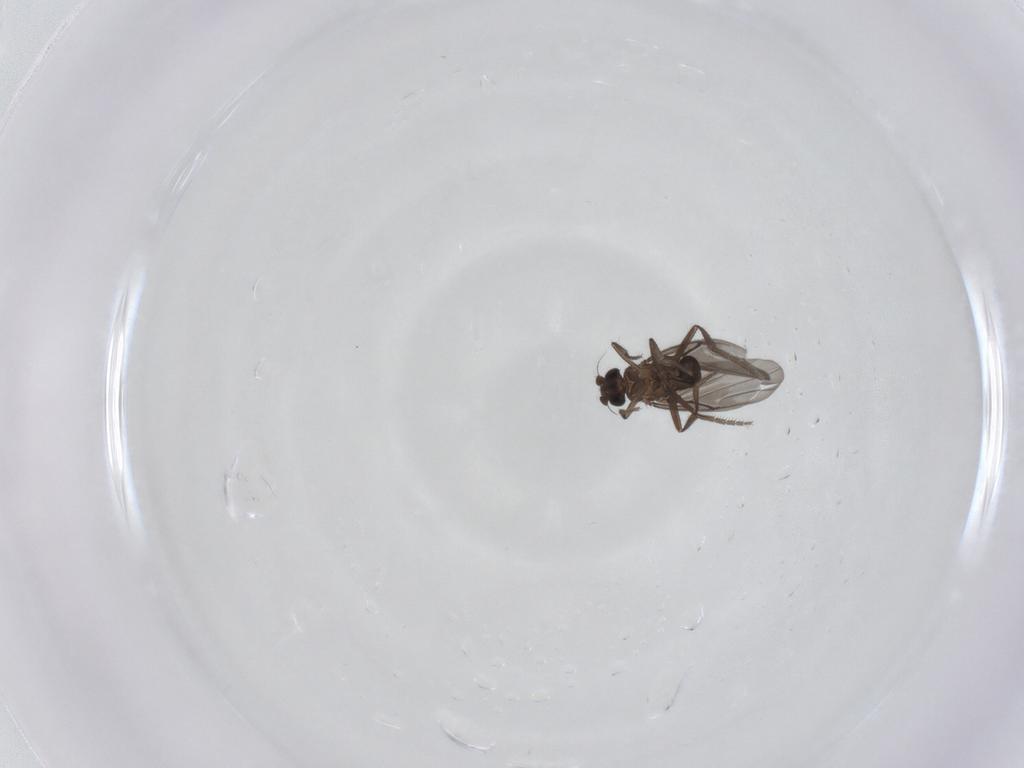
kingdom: Animalia
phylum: Arthropoda
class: Insecta
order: Diptera
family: Phoridae
